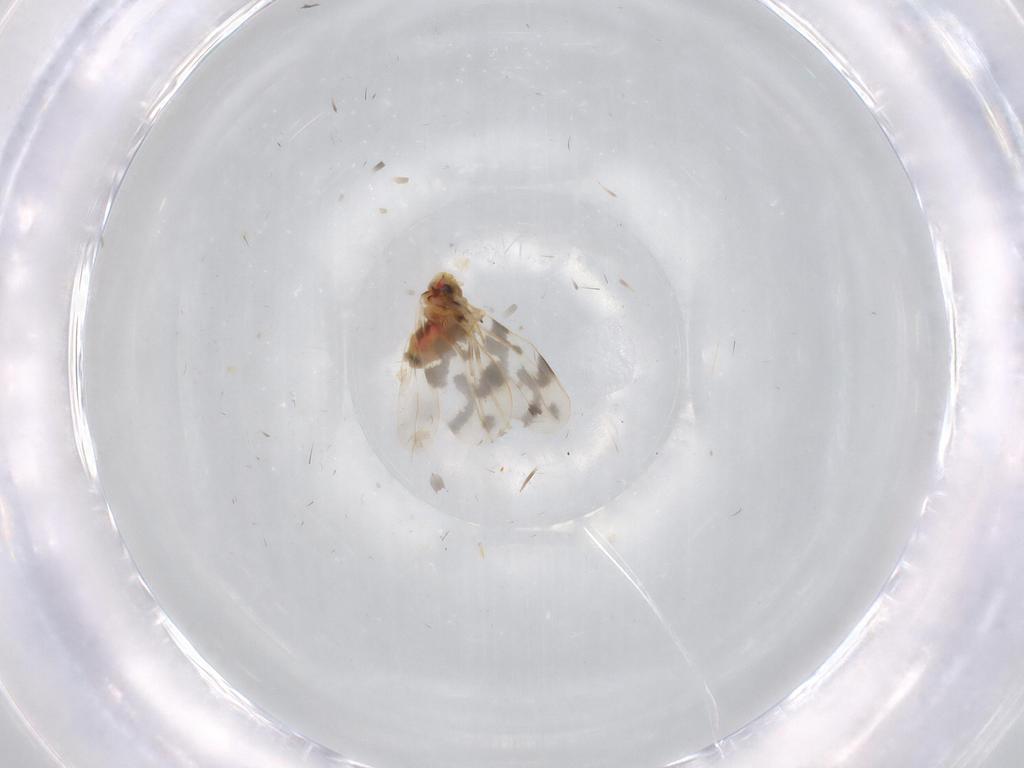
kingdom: Animalia
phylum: Arthropoda
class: Insecta
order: Hemiptera
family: Aleyrodidae
